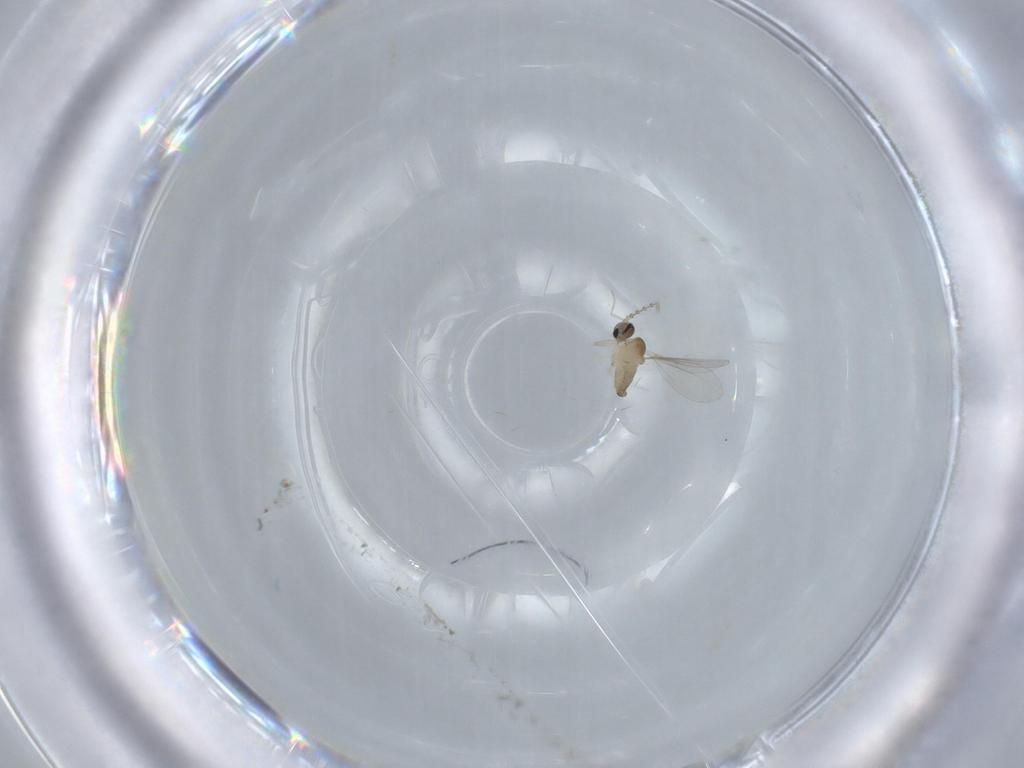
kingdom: Animalia
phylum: Arthropoda
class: Insecta
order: Diptera
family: Cecidomyiidae
